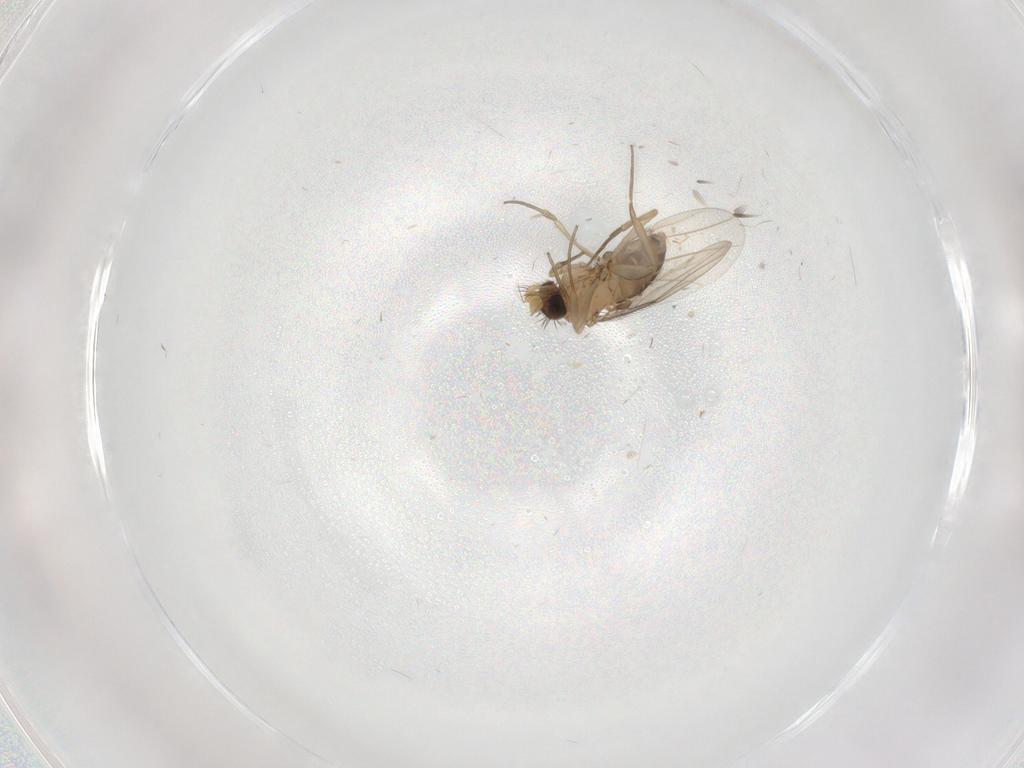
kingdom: Animalia
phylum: Arthropoda
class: Insecta
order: Diptera
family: Phoridae
